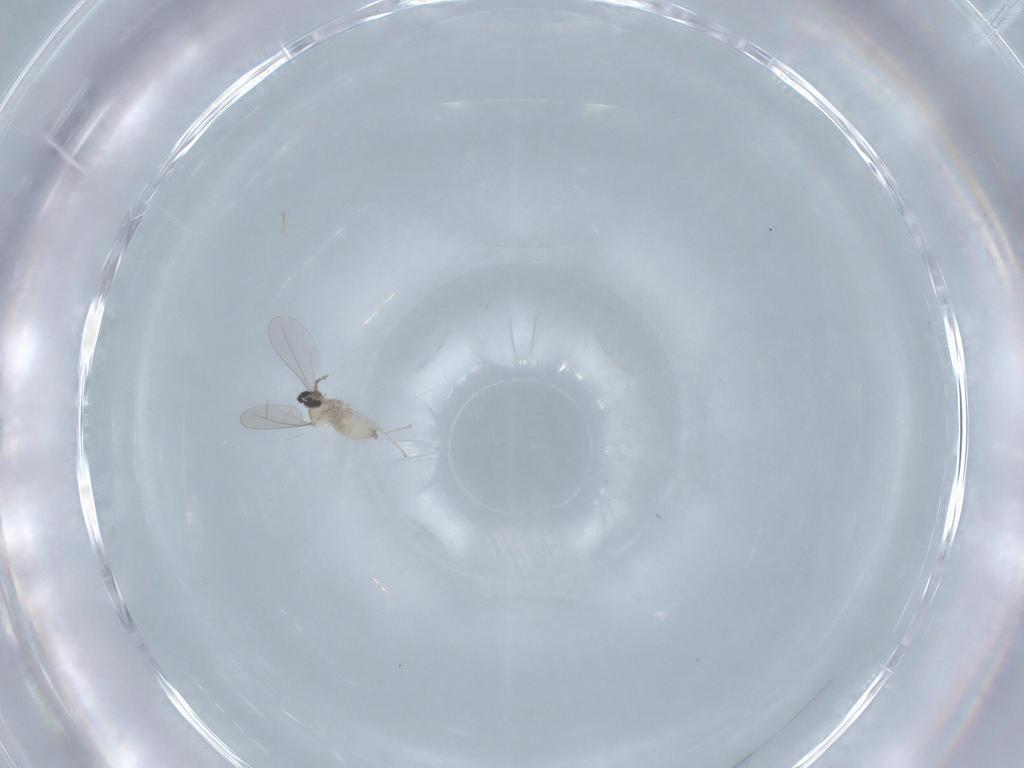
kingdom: Animalia
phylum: Arthropoda
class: Insecta
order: Diptera
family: Cecidomyiidae
